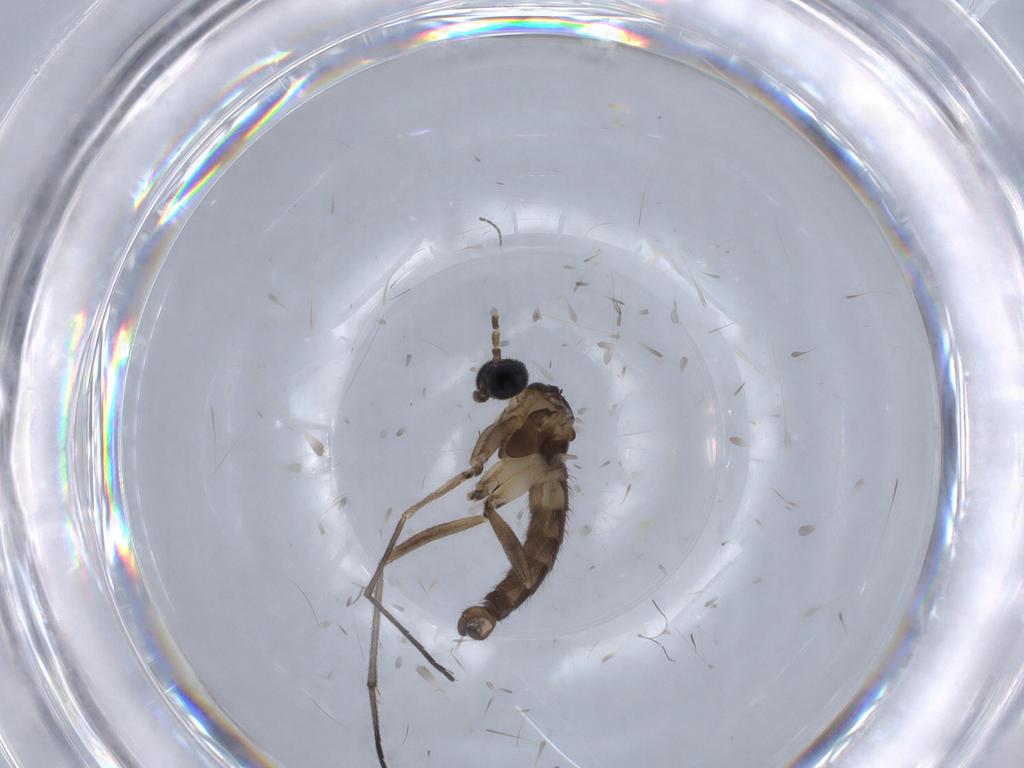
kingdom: Animalia
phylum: Arthropoda
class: Insecta
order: Diptera
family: Sciaridae
